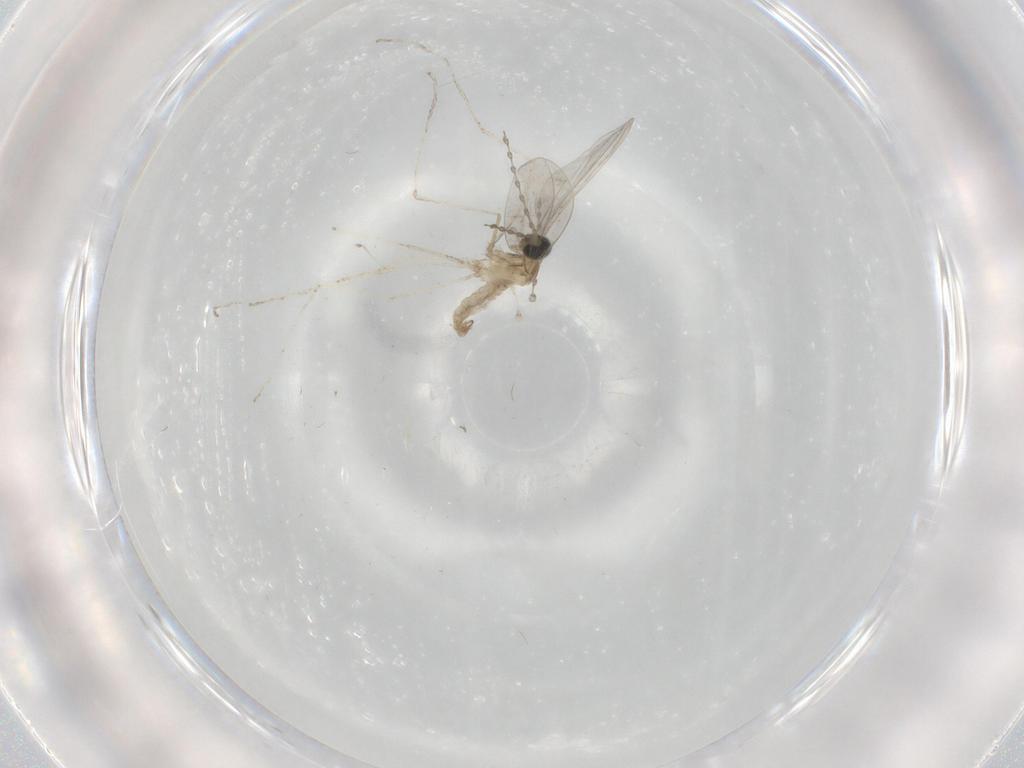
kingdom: Animalia
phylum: Arthropoda
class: Insecta
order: Diptera
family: Cecidomyiidae
